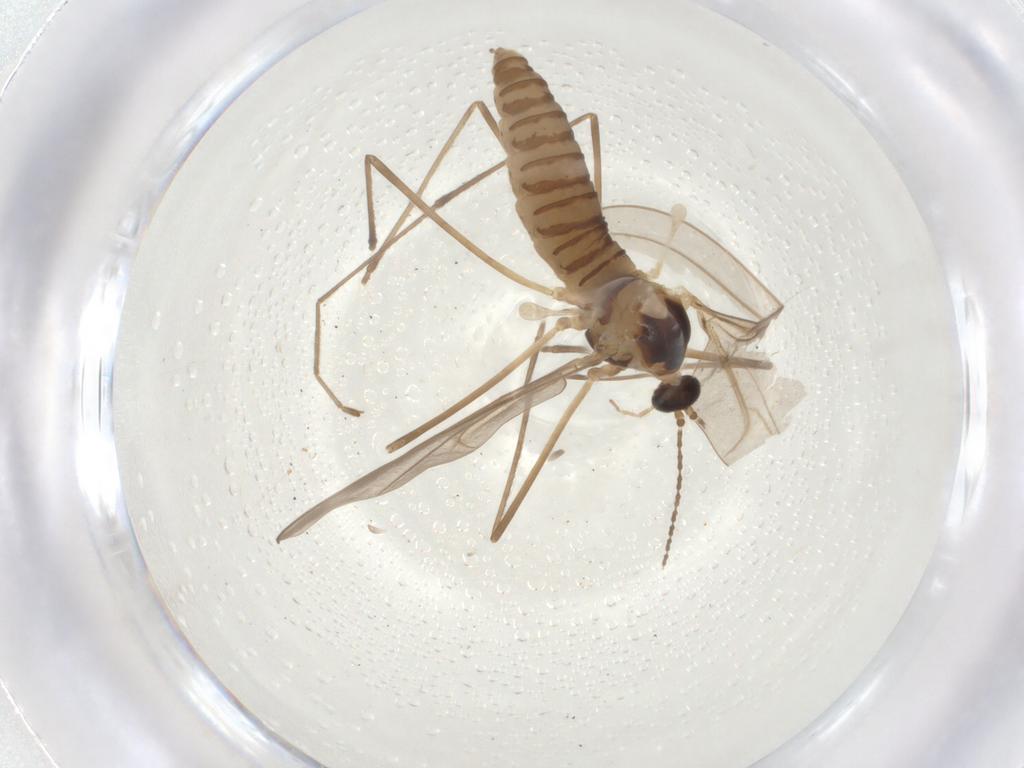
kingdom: Animalia
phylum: Arthropoda
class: Insecta
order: Diptera
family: Cecidomyiidae
